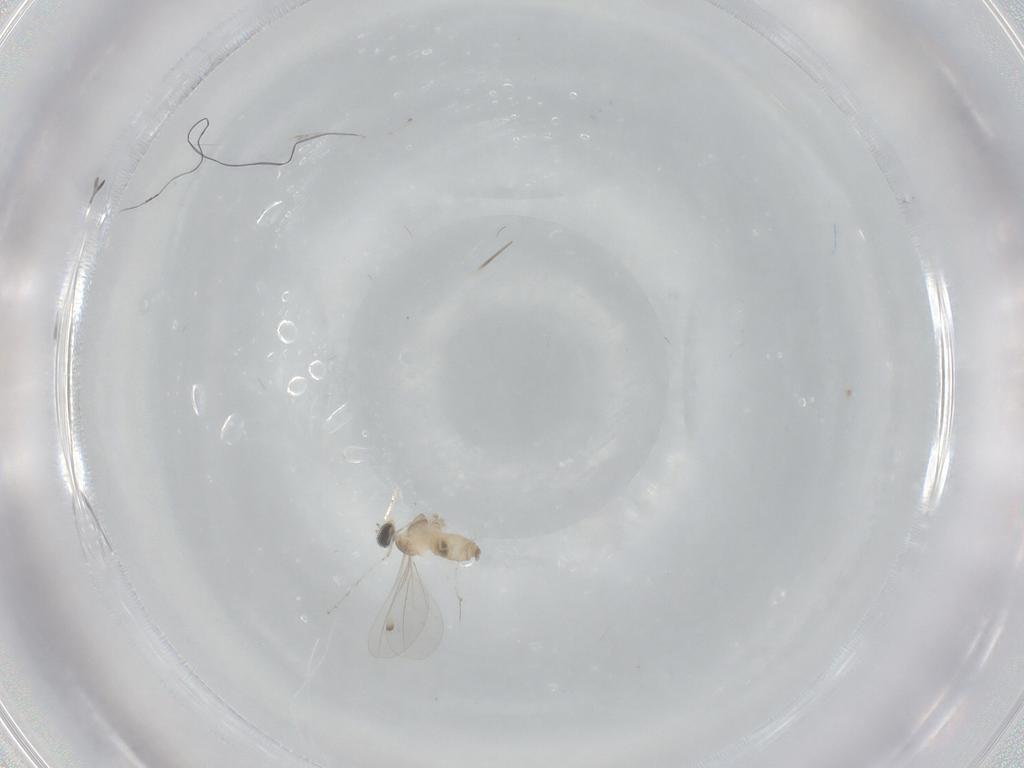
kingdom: Animalia
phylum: Arthropoda
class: Insecta
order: Diptera
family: Cecidomyiidae
